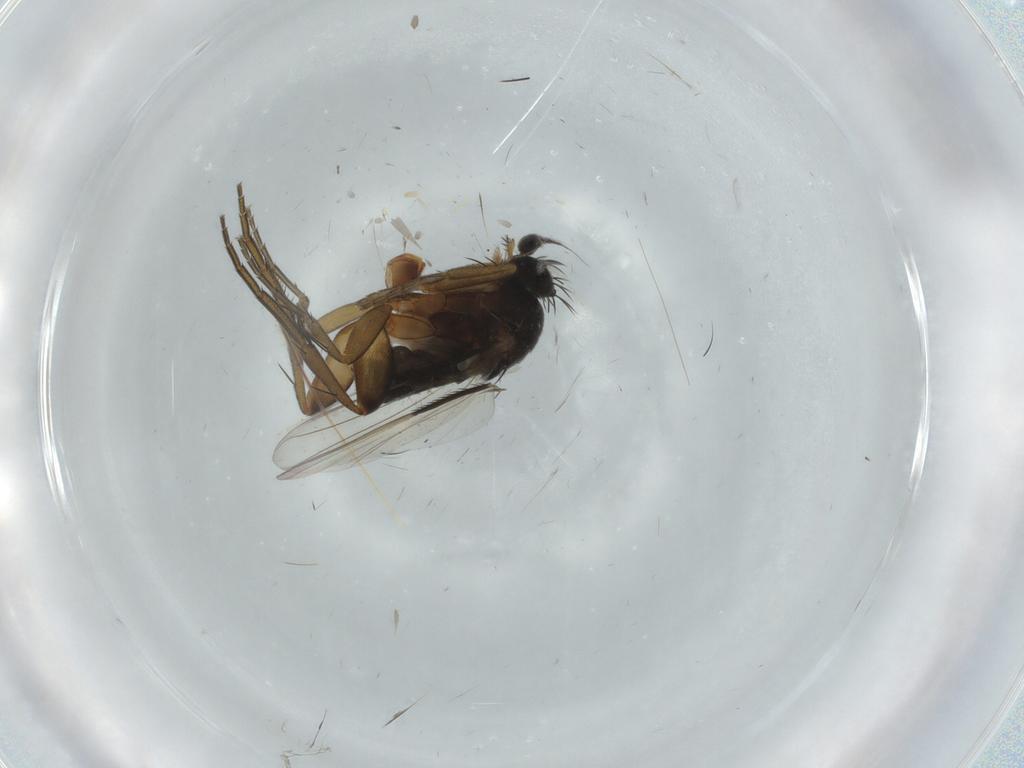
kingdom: Animalia
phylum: Arthropoda
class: Insecta
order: Diptera
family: Phoridae
